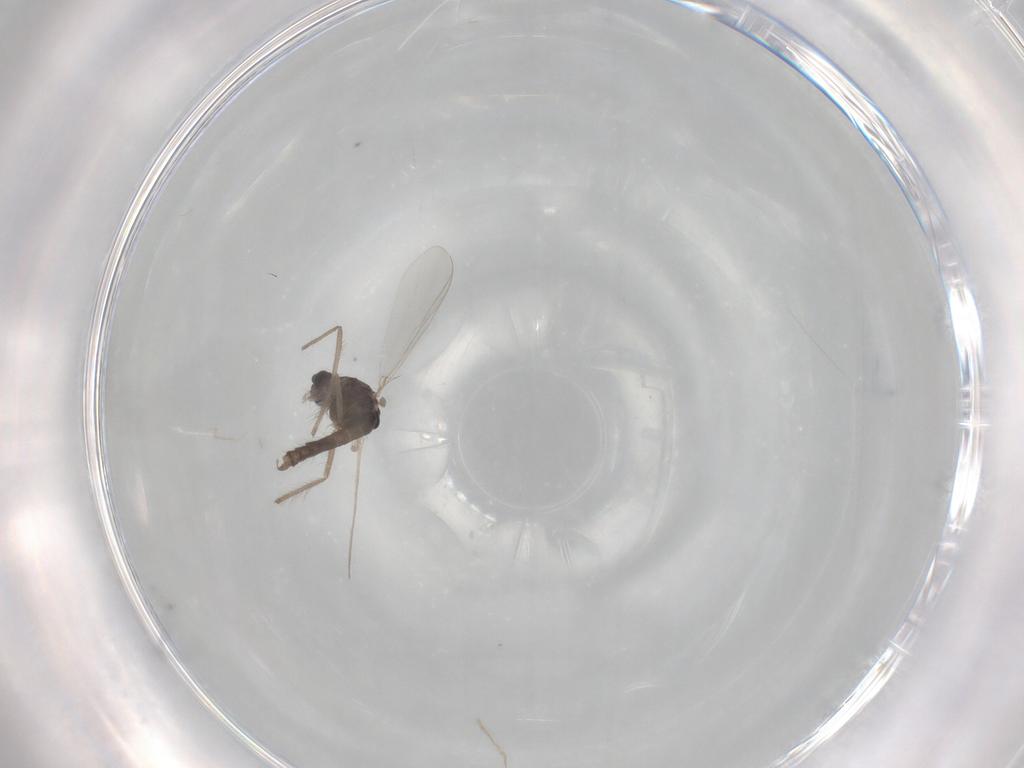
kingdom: Animalia
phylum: Arthropoda
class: Insecta
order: Diptera
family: Chironomidae
